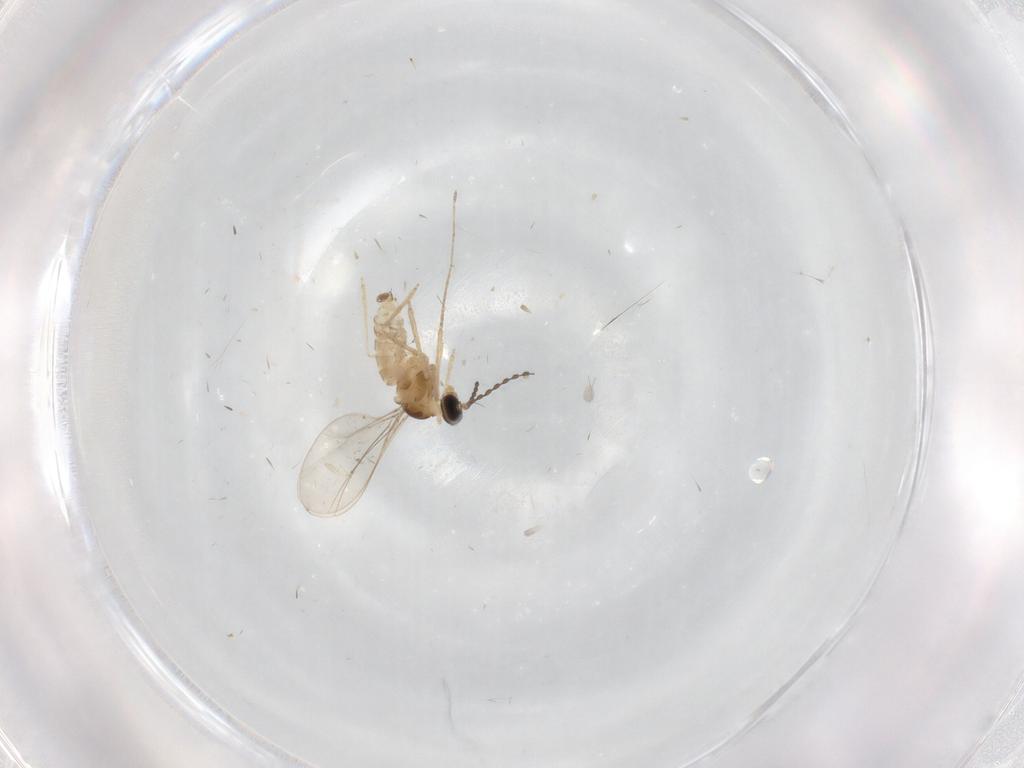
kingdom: Animalia
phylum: Arthropoda
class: Insecta
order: Diptera
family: Cecidomyiidae
